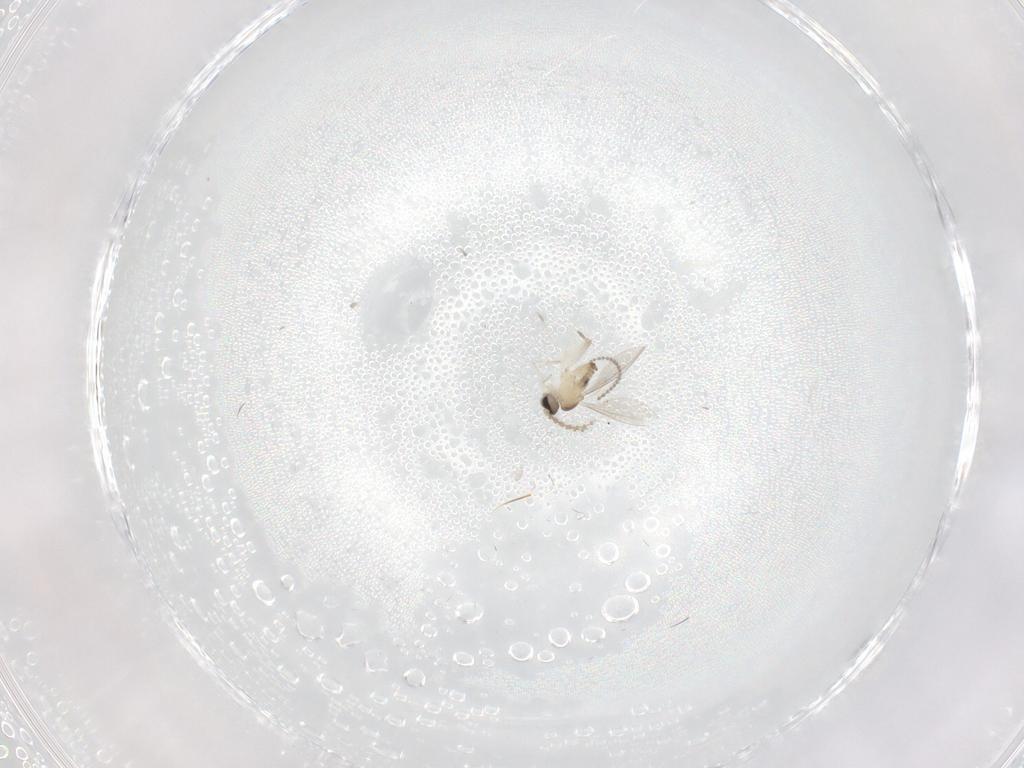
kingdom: Animalia
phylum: Arthropoda
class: Insecta
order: Diptera
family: Cecidomyiidae
